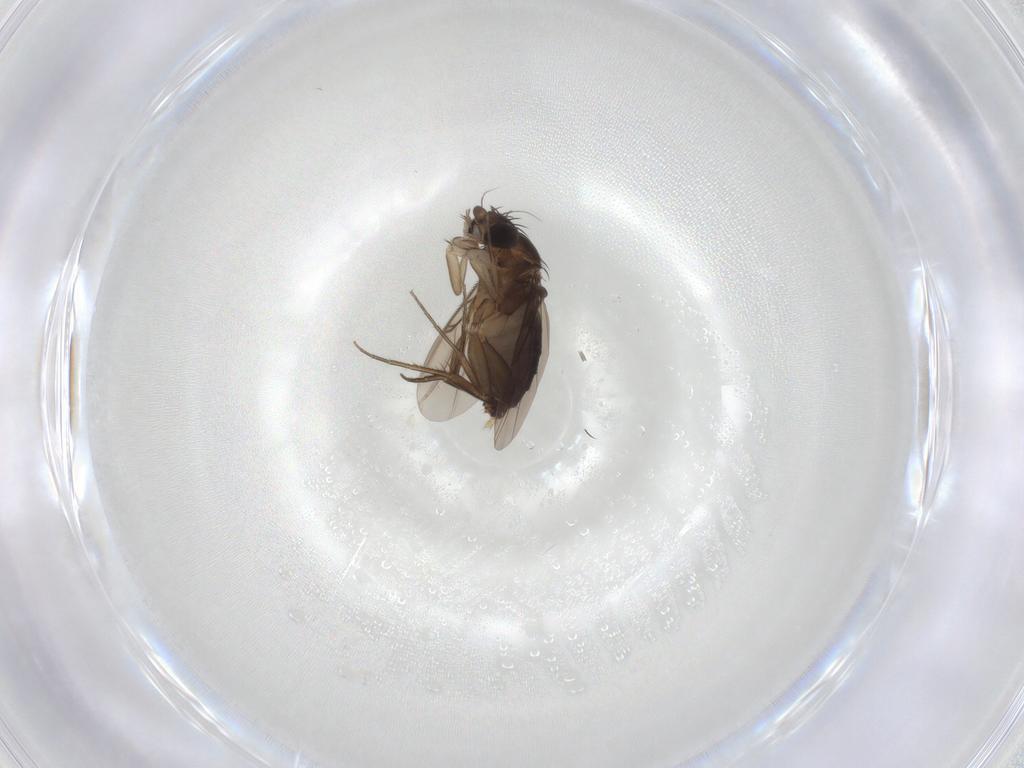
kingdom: Animalia
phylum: Arthropoda
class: Insecta
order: Diptera
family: Phoridae
